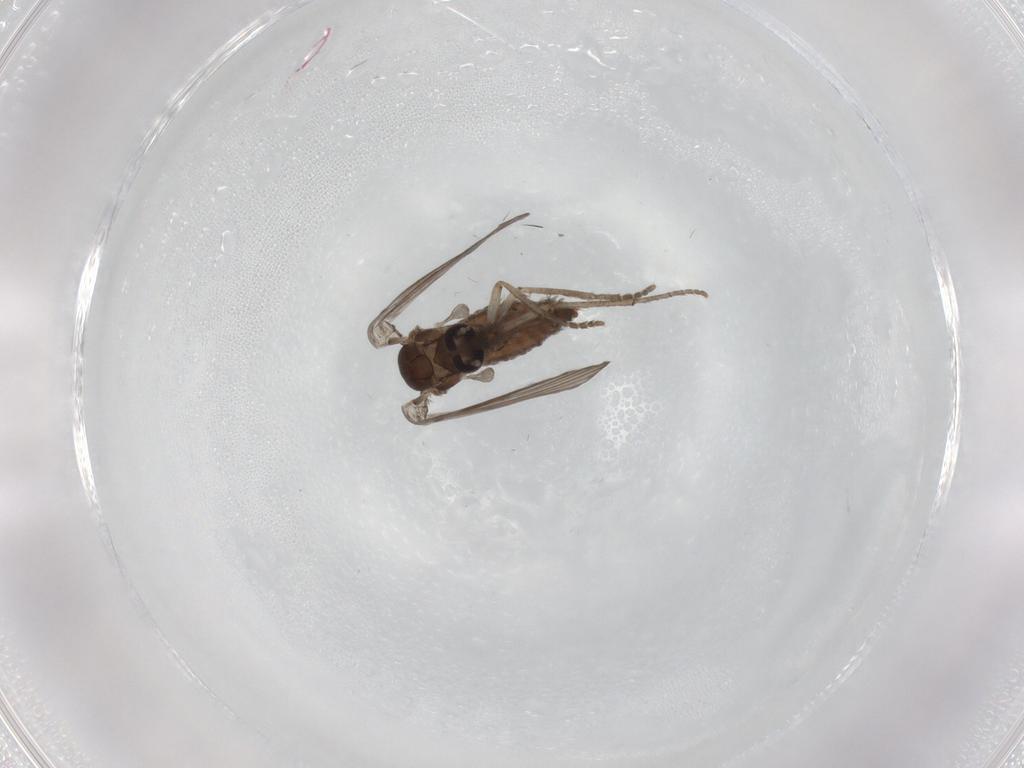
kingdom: Animalia
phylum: Arthropoda
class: Insecta
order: Diptera
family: Psychodidae
